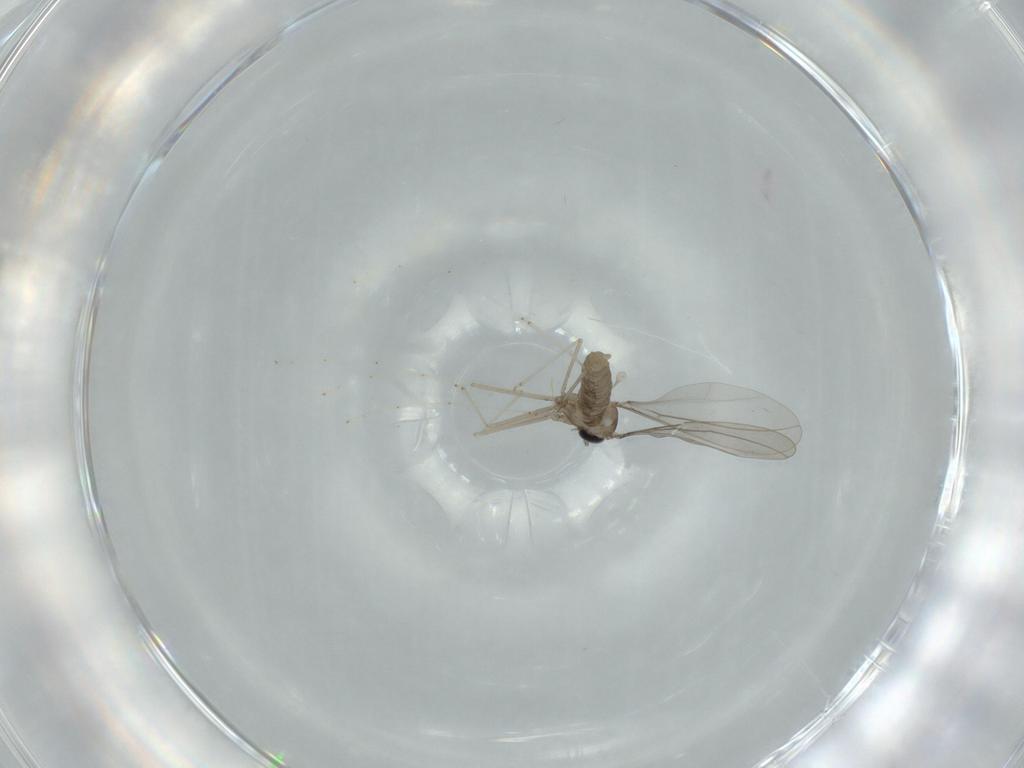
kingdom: Animalia
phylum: Arthropoda
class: Insecta
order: Diptera
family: Cecidomyiidae
